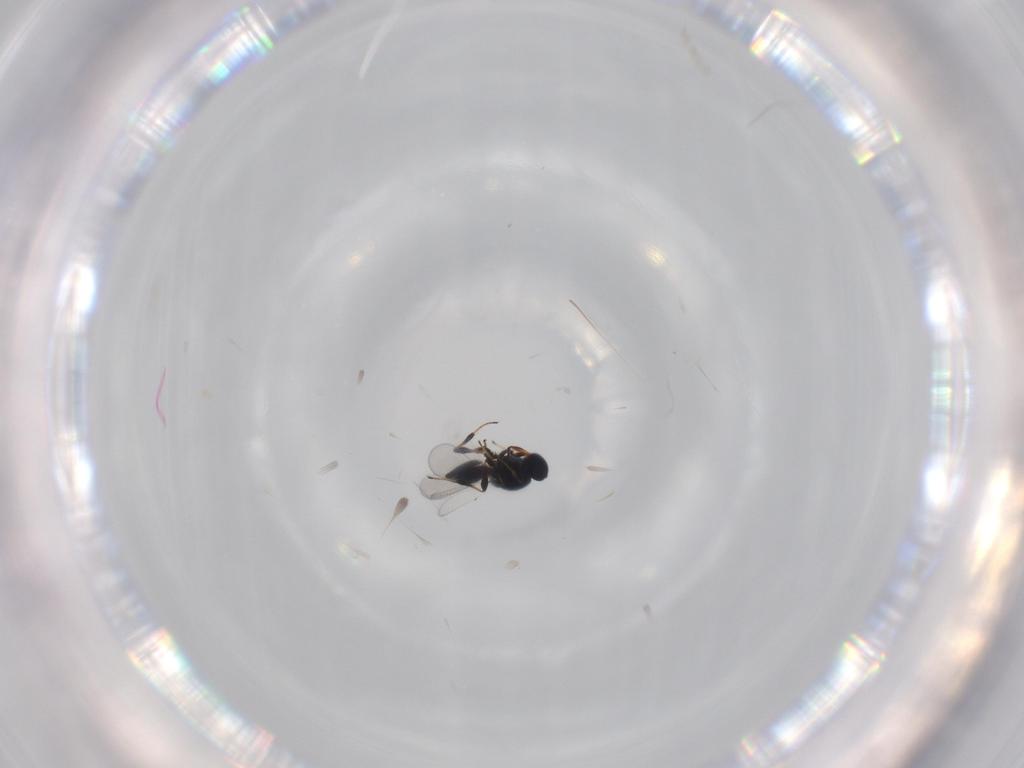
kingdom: Animalia
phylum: Arthropoda
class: Insecta
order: Hymenoptera
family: Platygastridae
